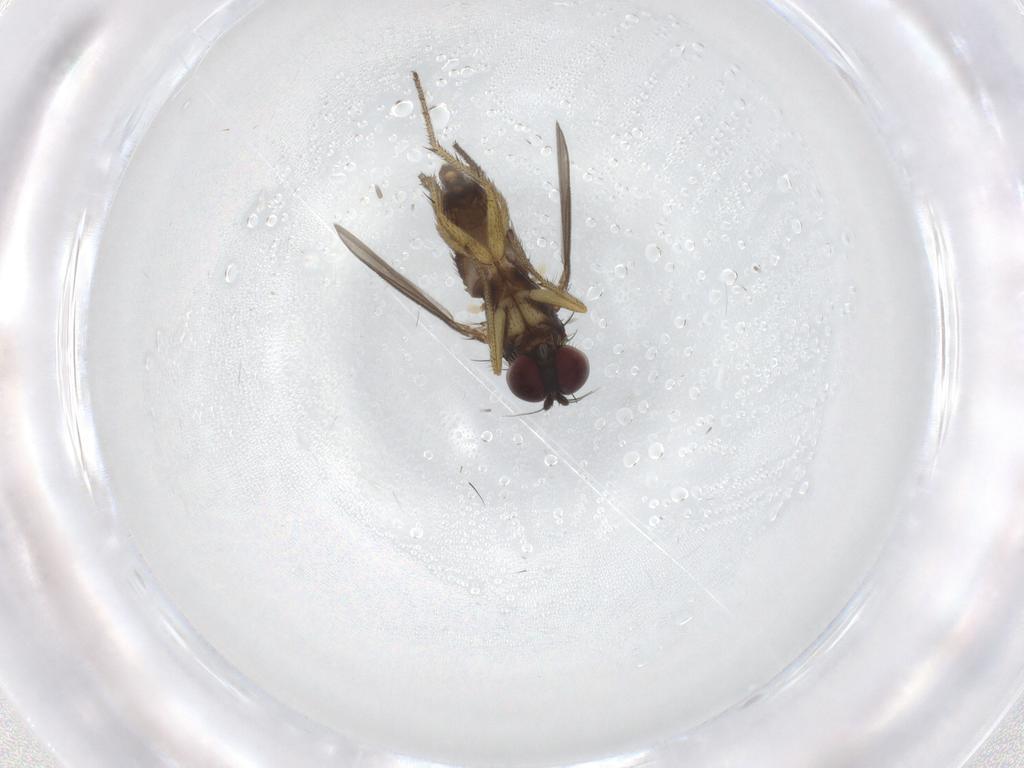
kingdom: Animalia
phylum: Arthropoda
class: Insecta
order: Diptera
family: Dolichopodidae
